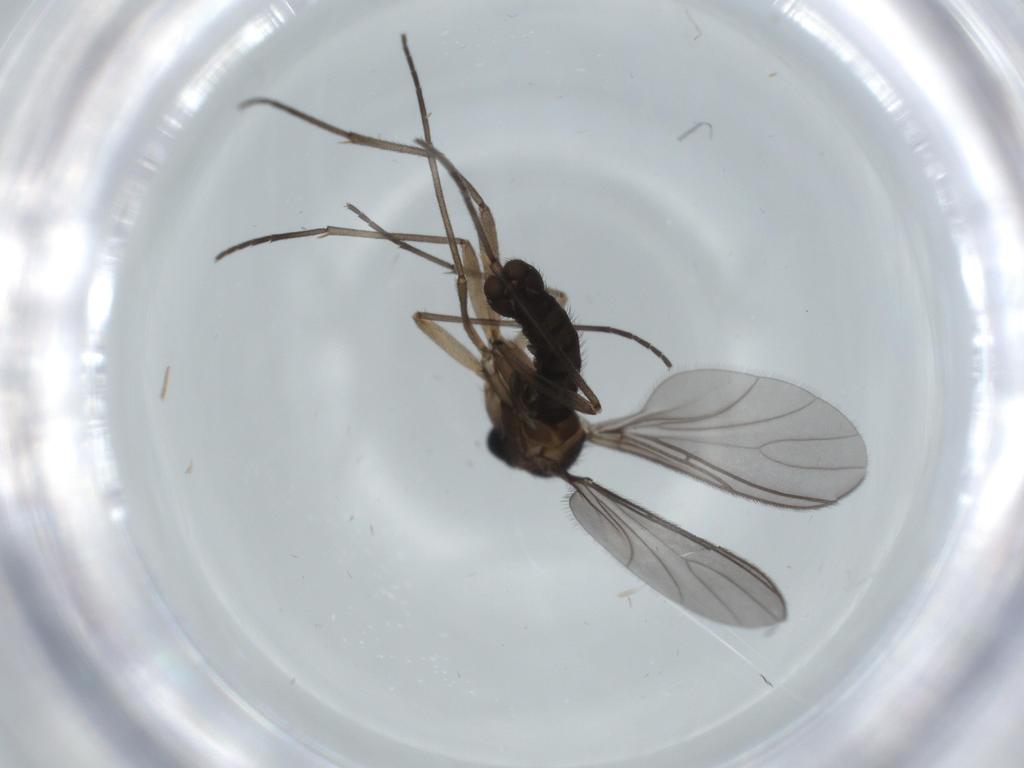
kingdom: Animalia
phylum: Arthropoda
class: Insecta
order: Diptera
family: Sciaridae
